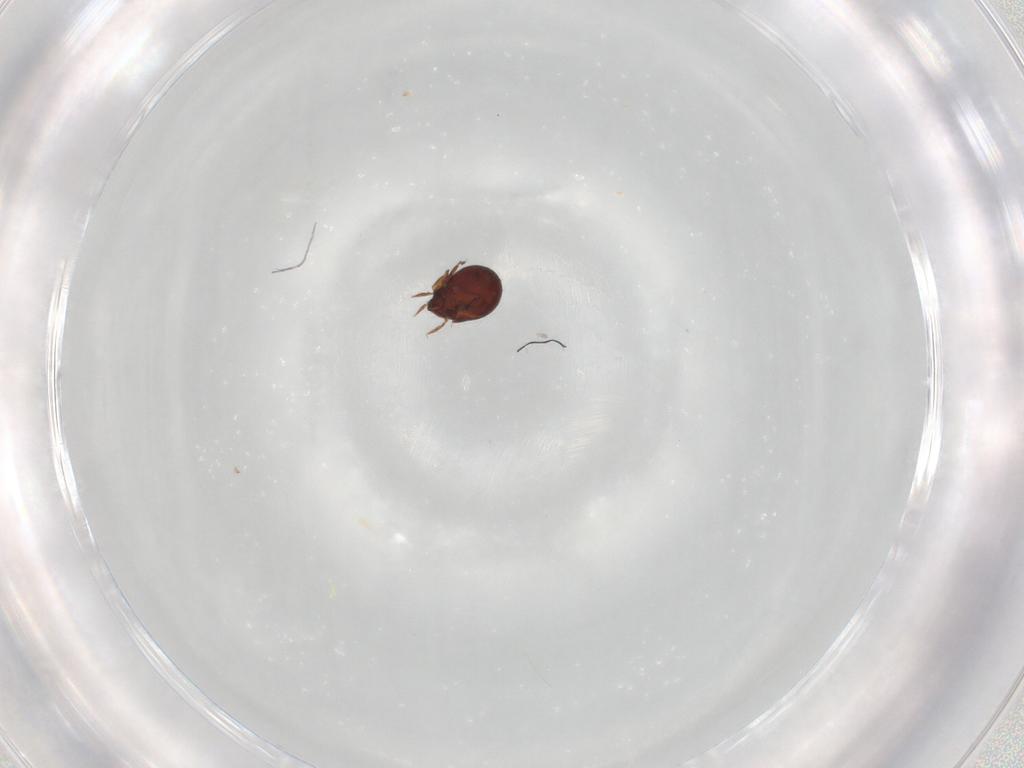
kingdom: Animalia
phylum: Arthropoda
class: Arachnida
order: Sarcoptiformes
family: Humerobatidae
